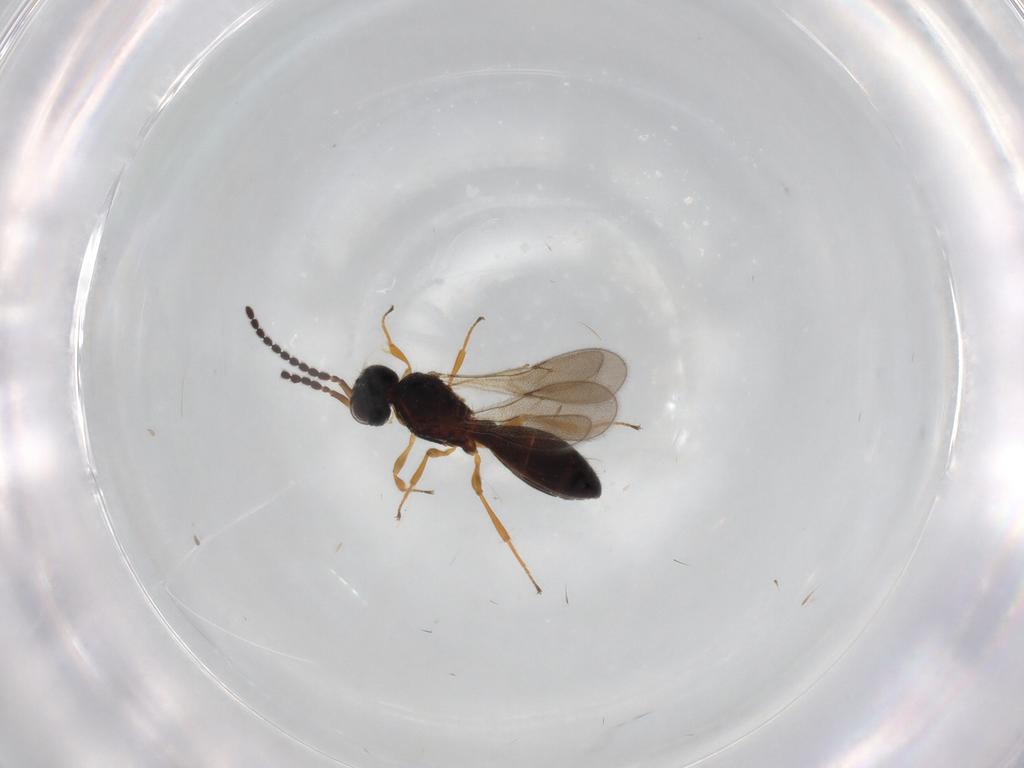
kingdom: Animalia
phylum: Arthropoda
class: Insecta
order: Hymenoptera
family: Scelionidae
